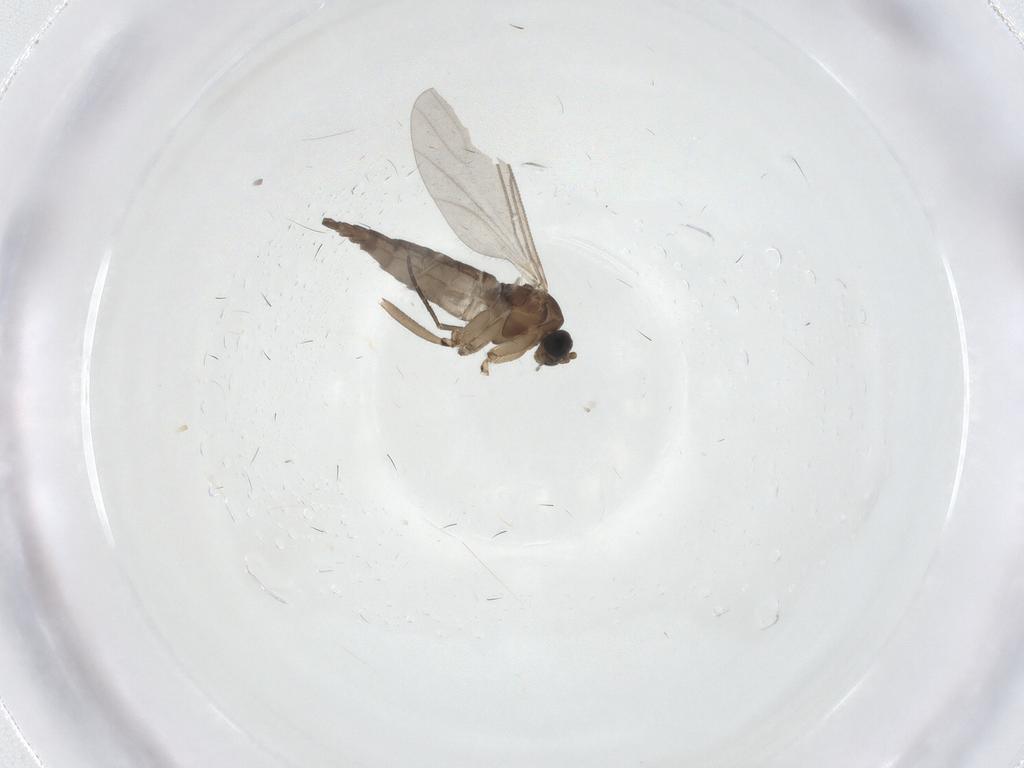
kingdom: Animalia
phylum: Arthropoda
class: Insecta
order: Diptera
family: Sciaridae
